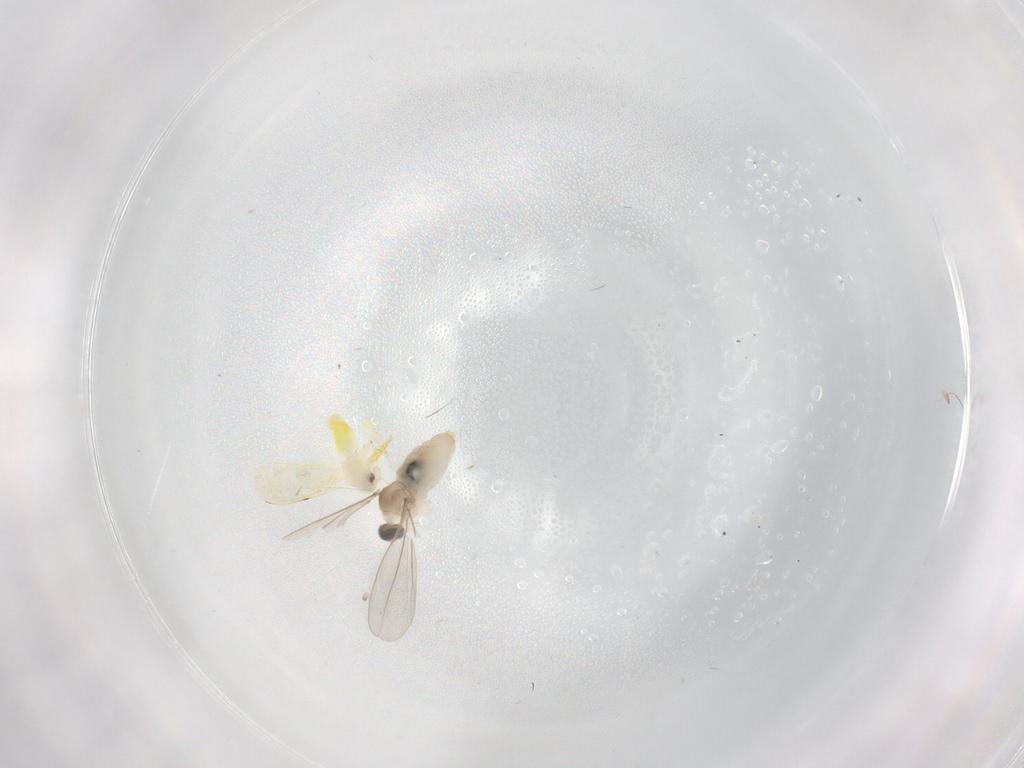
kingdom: Animalia
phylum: Arthropoda
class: Insecta
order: Diptera
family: Cecidomyiidae
